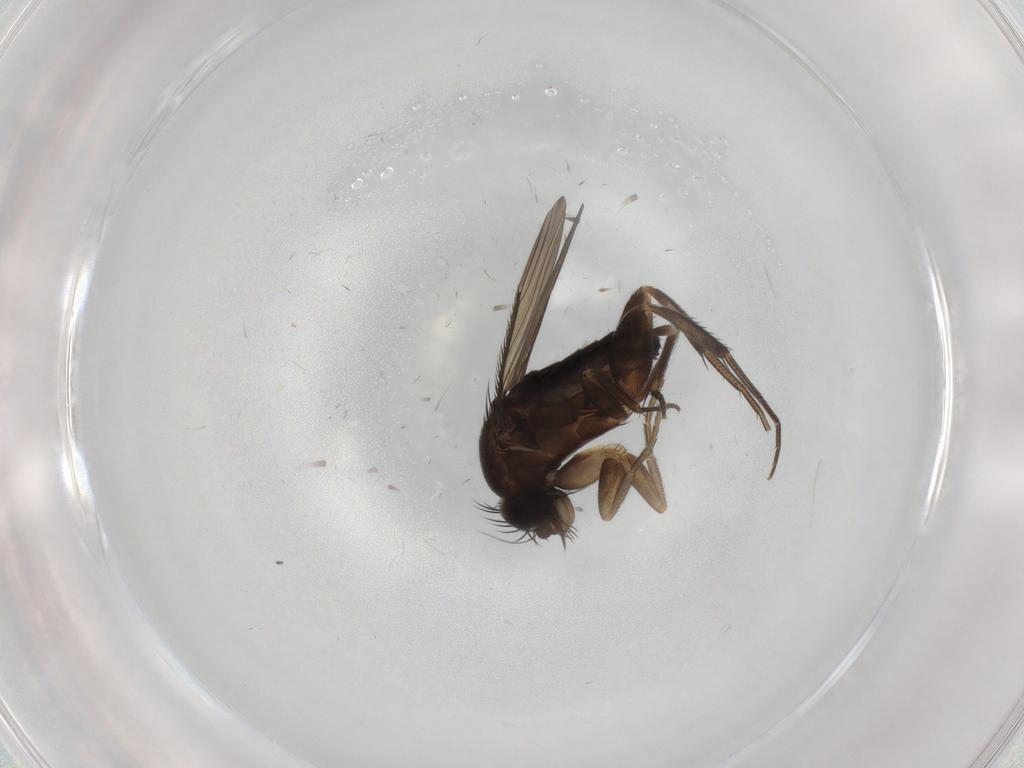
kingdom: Animalia
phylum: Arthropoda
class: Insecta
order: Diptera
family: Phoridae
